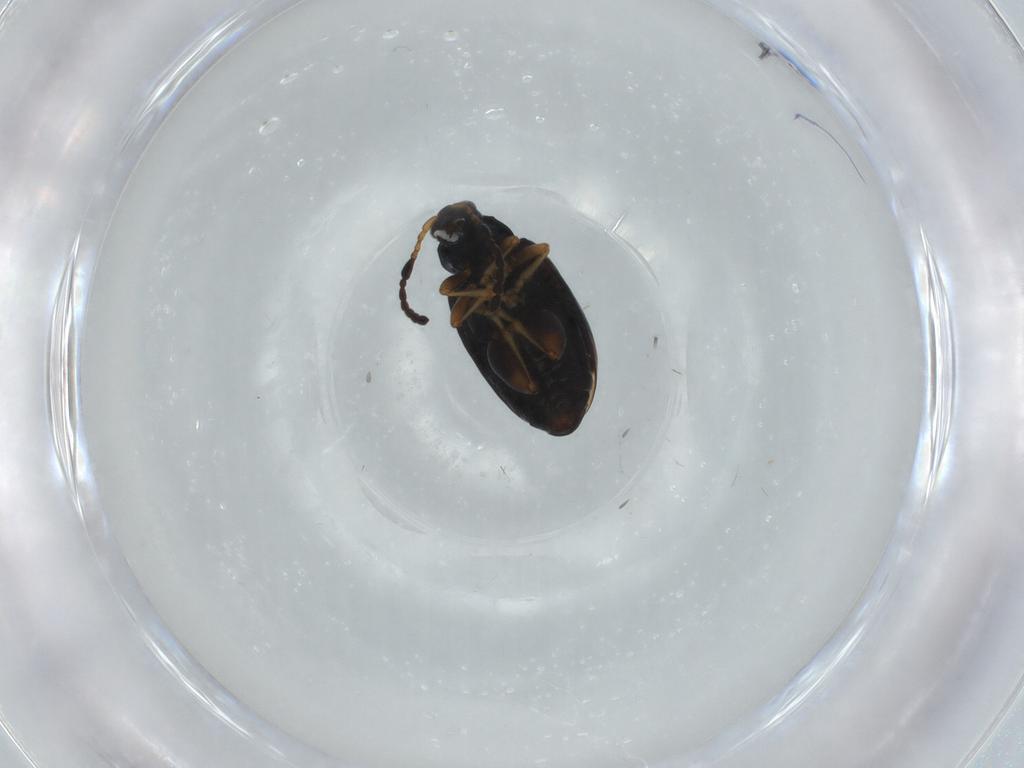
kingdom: Animalia
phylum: Arthropoda
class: Insecta
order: Coleoptera
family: Chrysomelidae
